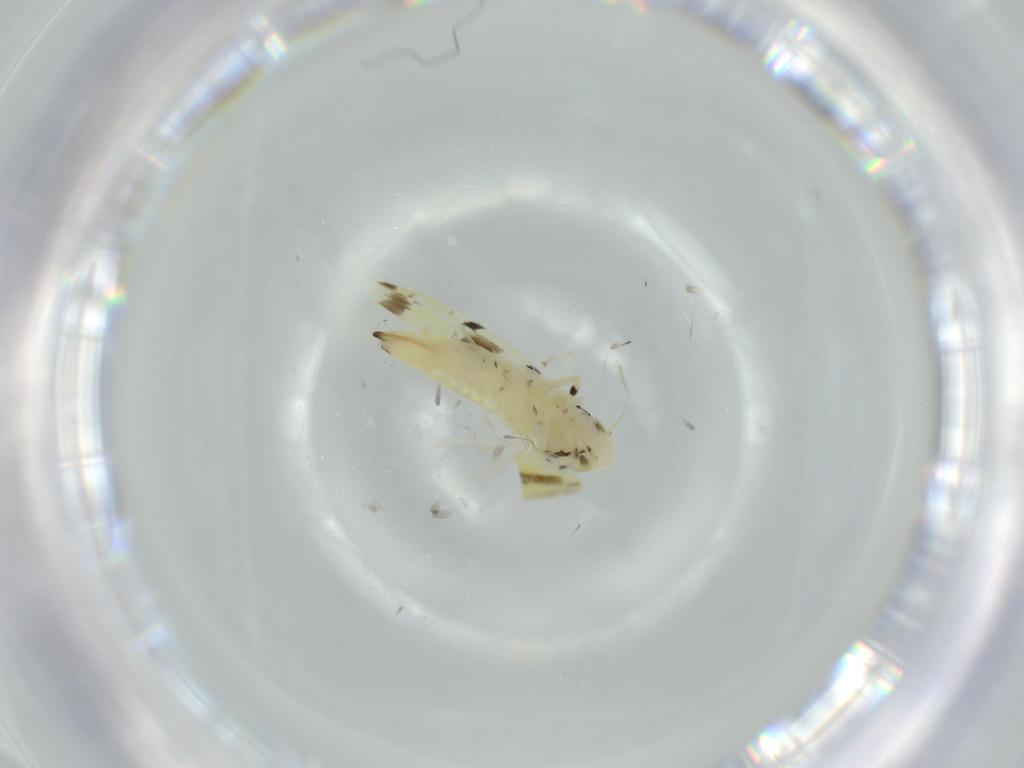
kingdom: Animalia
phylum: Arthropoda
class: Insecta
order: Hemiptera
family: Cicadellidae
